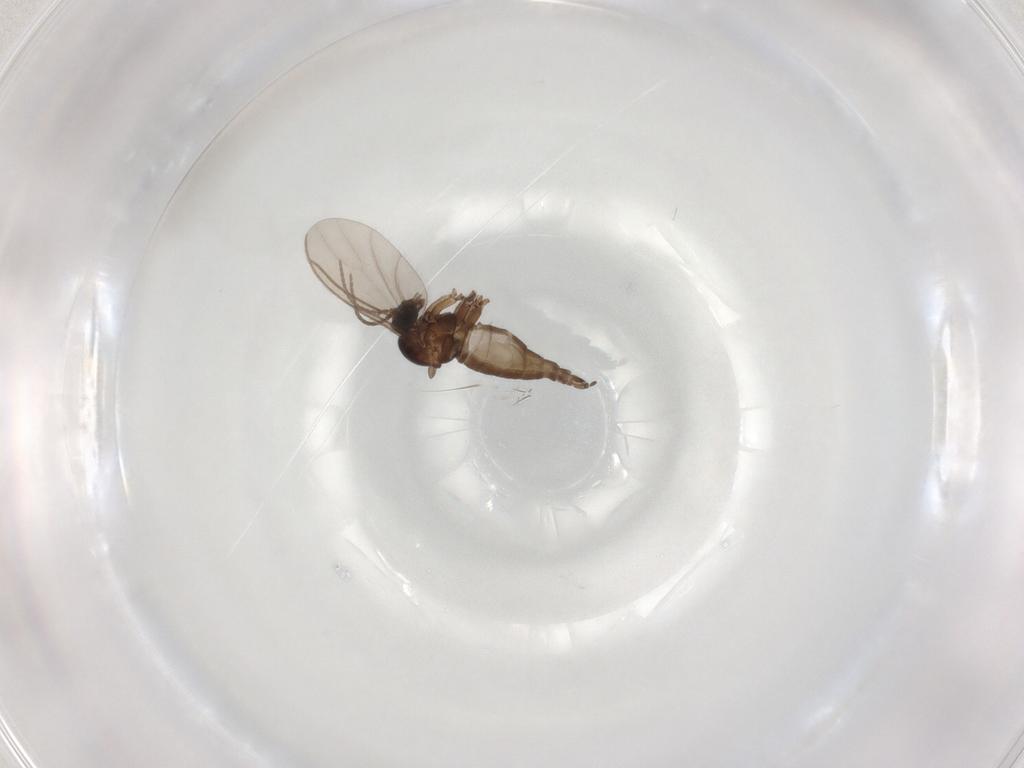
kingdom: Animalia
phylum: Arthropoda
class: Insecta
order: Diptera
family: Sciaridae
